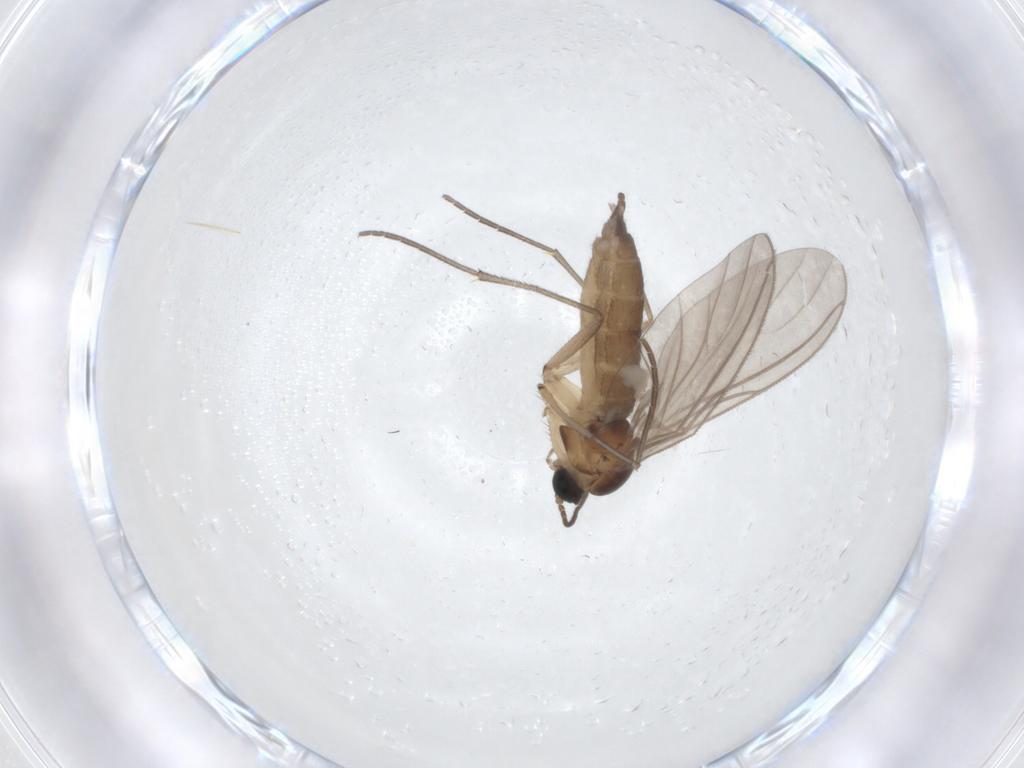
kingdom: Animalia
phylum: Arthropoda
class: Insecta
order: Diptera
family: Sciaridae
